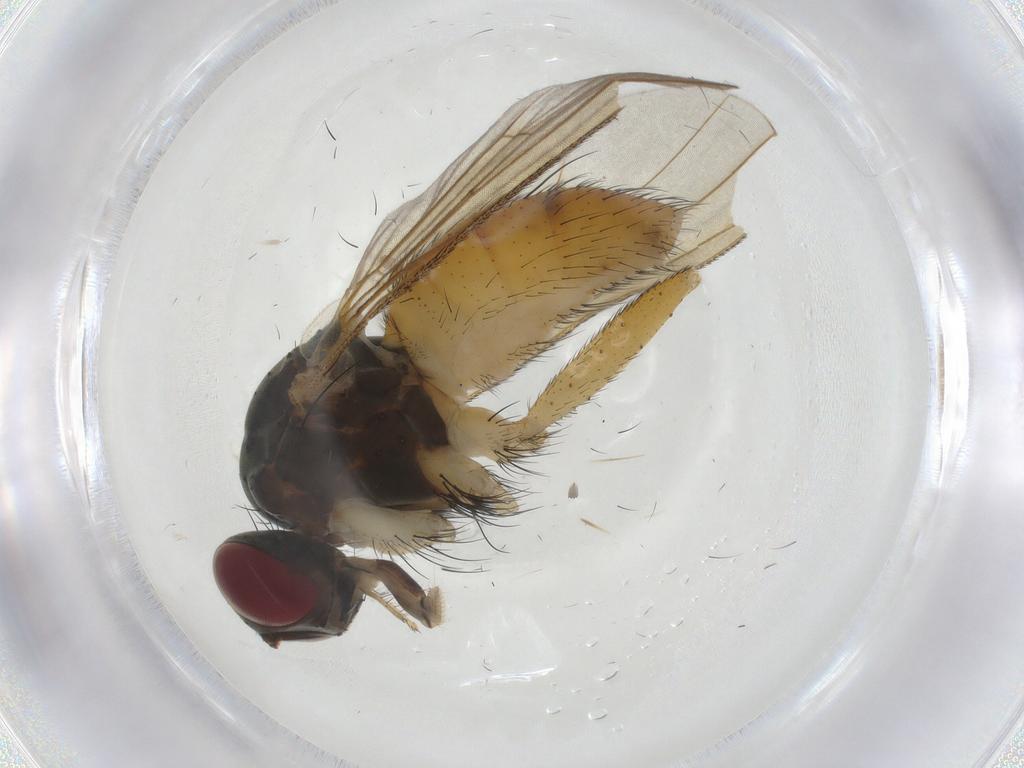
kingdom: Animalia
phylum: Arthropoda
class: Insecta
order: Diptera
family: Muscidae
